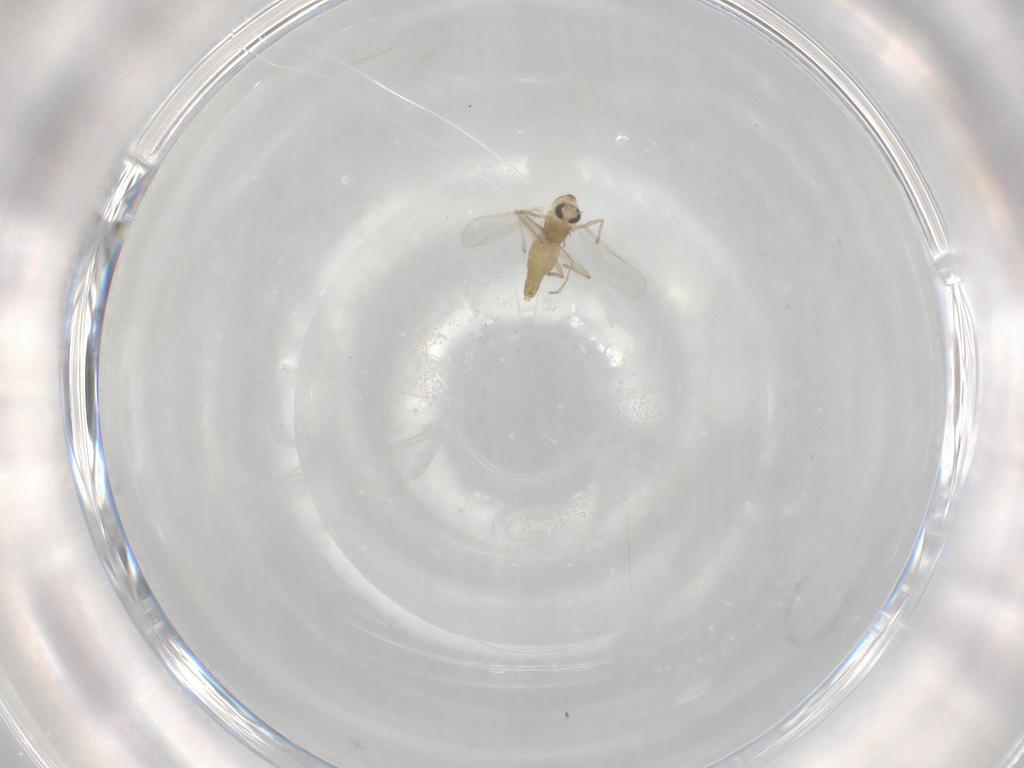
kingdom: Animalia
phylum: Arthropoda
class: Insecta
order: Diptera
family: Chironomidae
